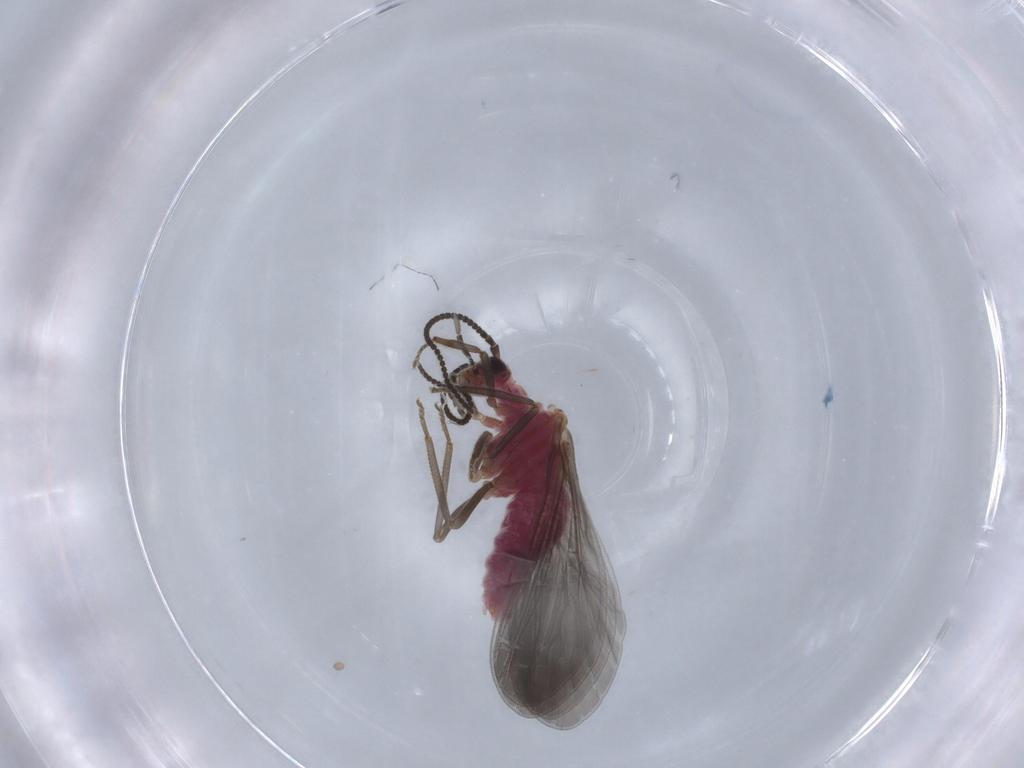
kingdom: Animalia
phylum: Arthropoda
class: Insecta
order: Neuroptera
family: Coniopterygidae
